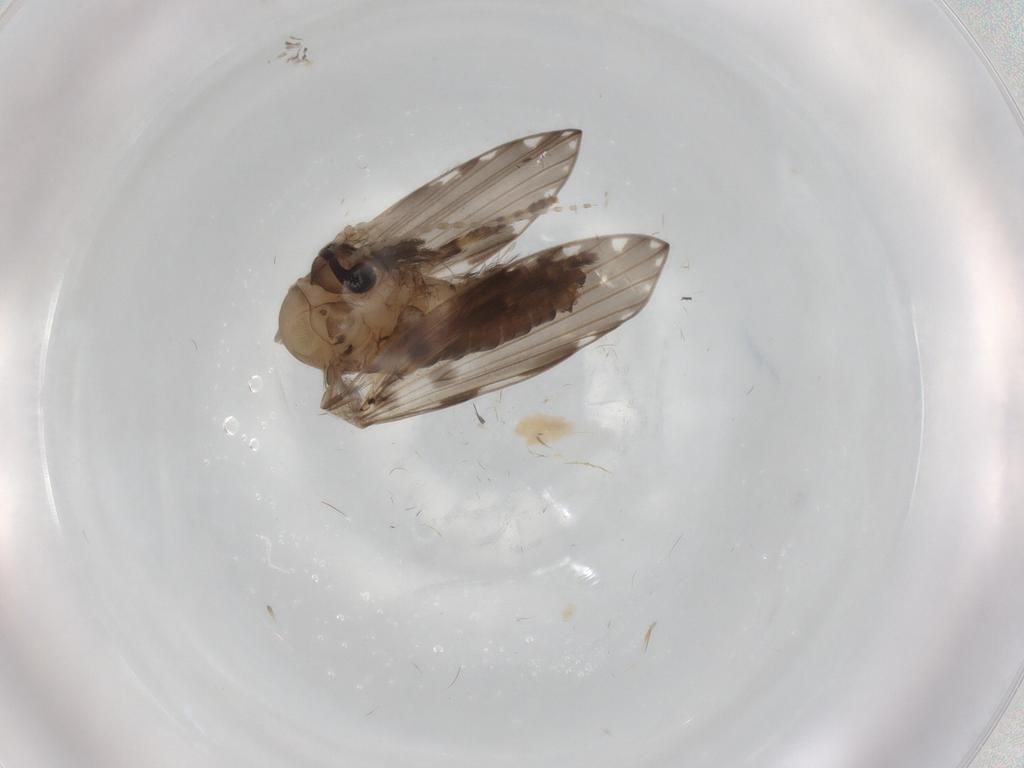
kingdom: Animalia
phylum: Arthropoda
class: Insecta
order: Diptera
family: Psychodidae
